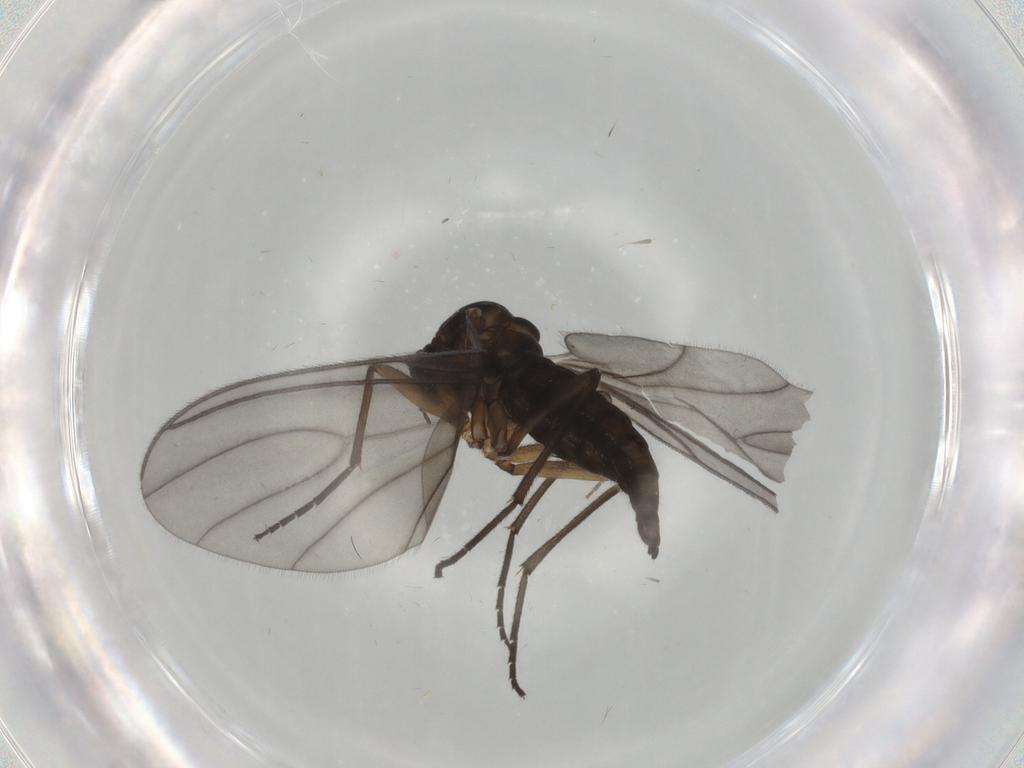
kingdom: Animalia
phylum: Arthropoda
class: Insecta
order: Diptera
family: Sciaridae
